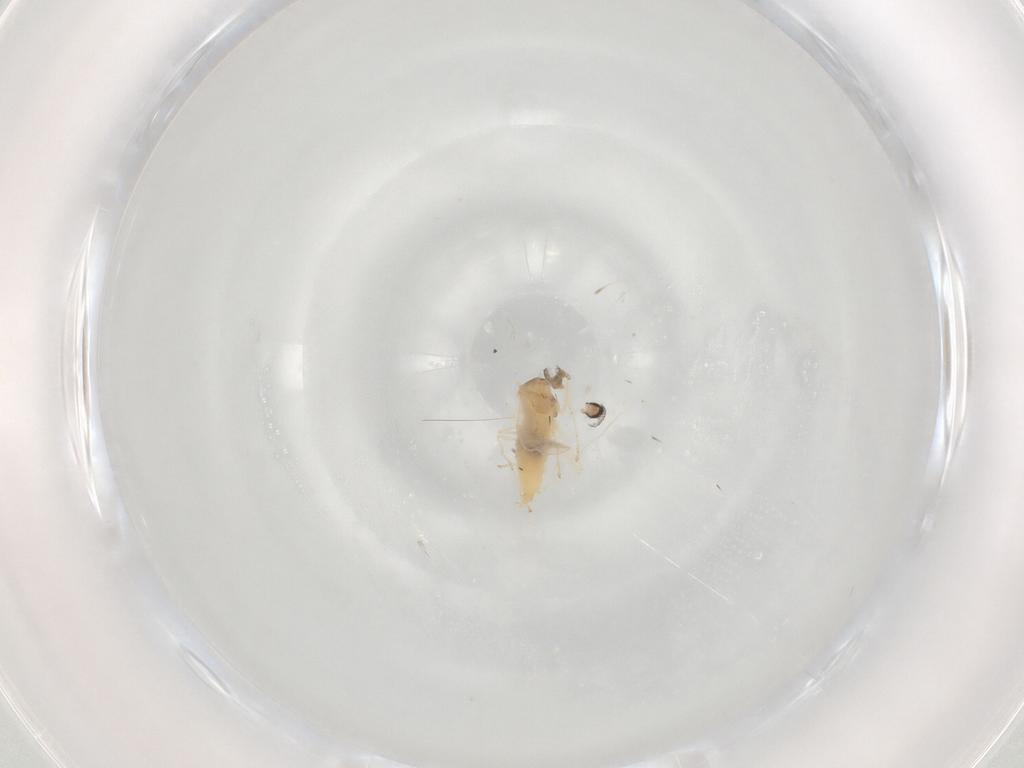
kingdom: Animalia
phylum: Arthropoda
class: Insecta
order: Diptera
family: Cecidomyiidae
